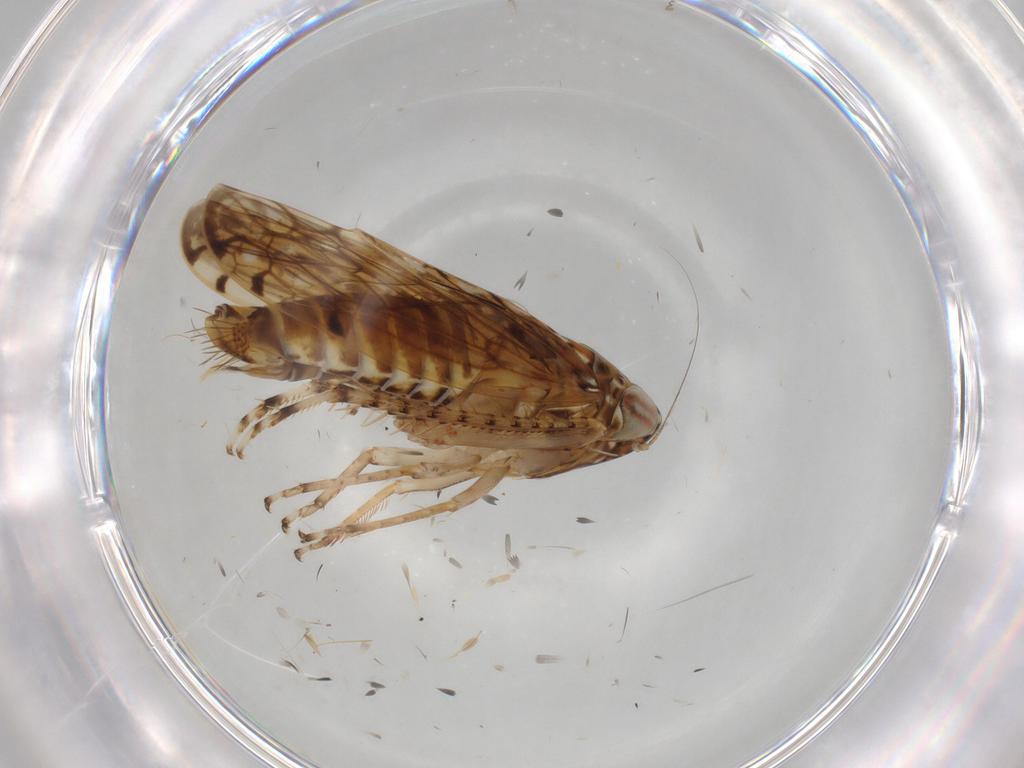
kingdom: Animalia
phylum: Arthropoda
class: Insecta
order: Hemiptera
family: Cicadellidae
